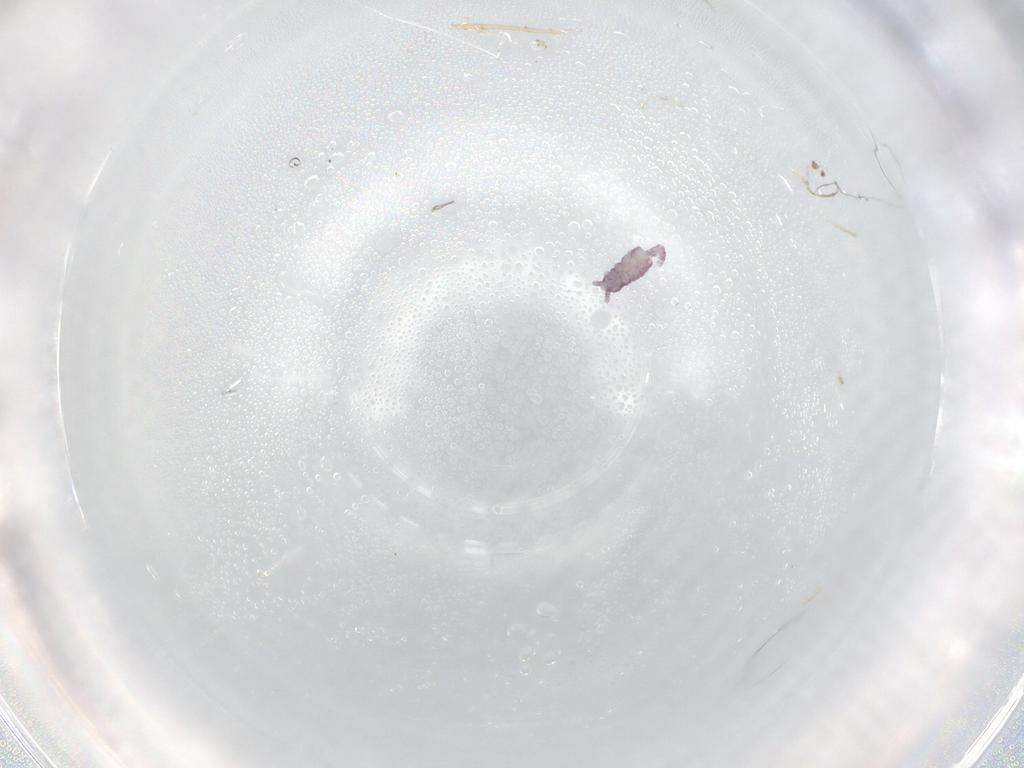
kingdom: Animalia
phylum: Arthropoda
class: Collembola
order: Poduromorpha
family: Brachystomellidae
